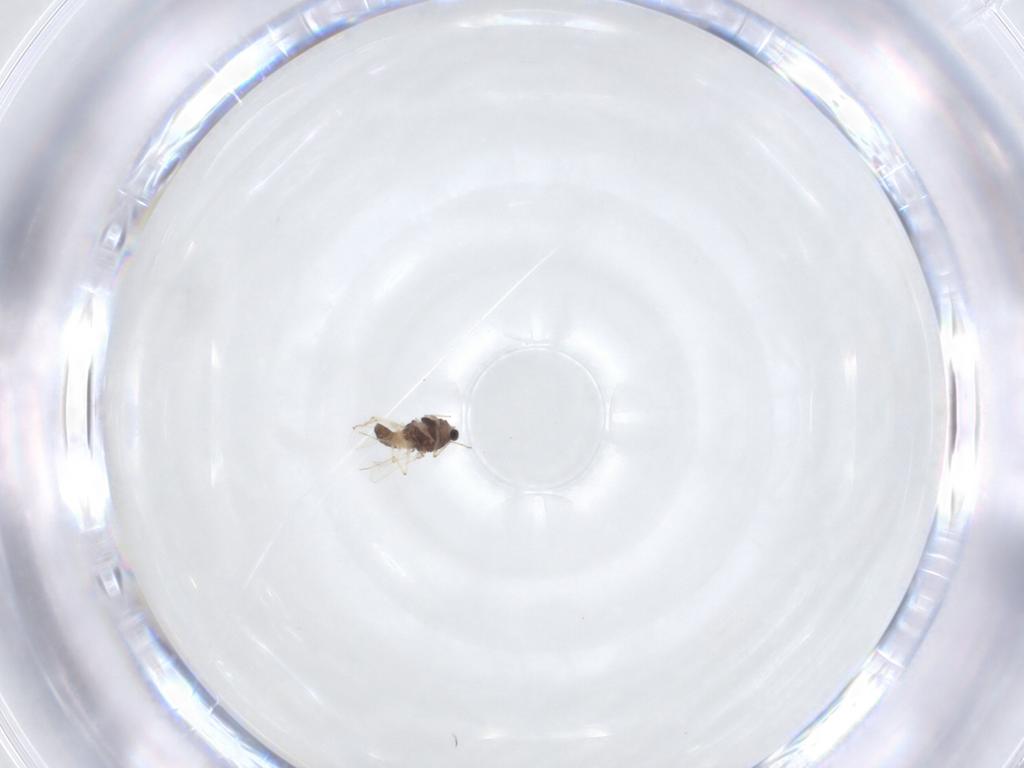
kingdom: Animalia
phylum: Arthropoda
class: Insecta
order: Diptera
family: Chironomidae
